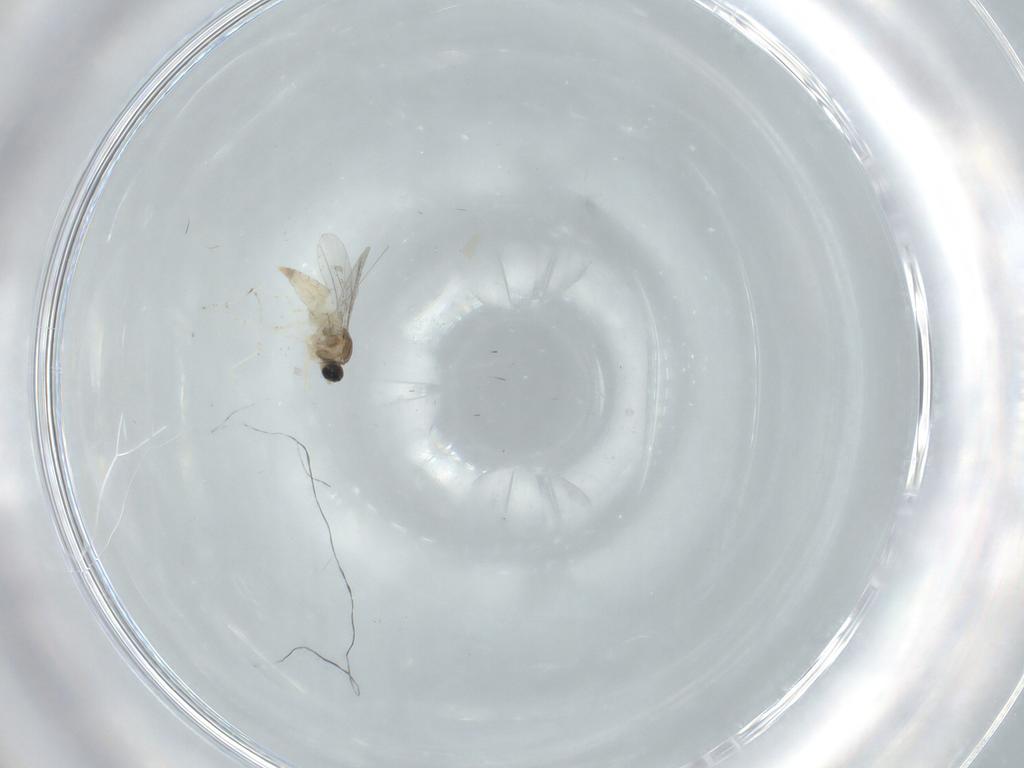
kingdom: Animalia
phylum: Arthropoda
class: Insecta
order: Diptera
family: Cecidomyiidae
